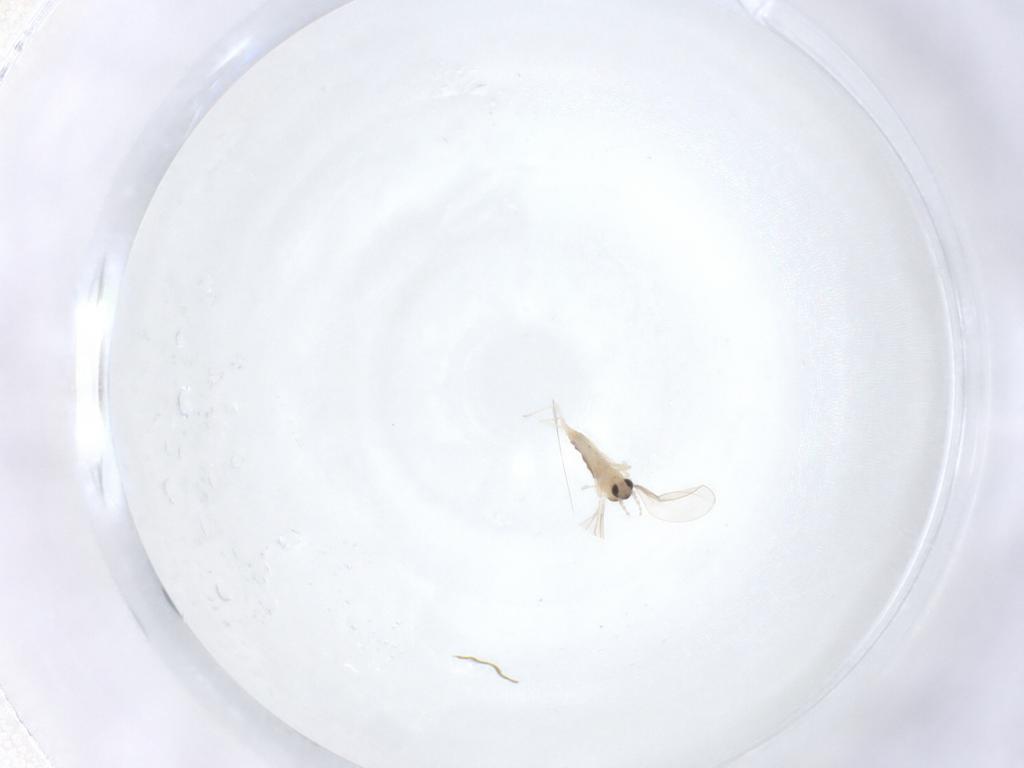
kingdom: Animalia
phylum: Arthropoda
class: Insecta
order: Diptera
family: Cecidomyiidae
